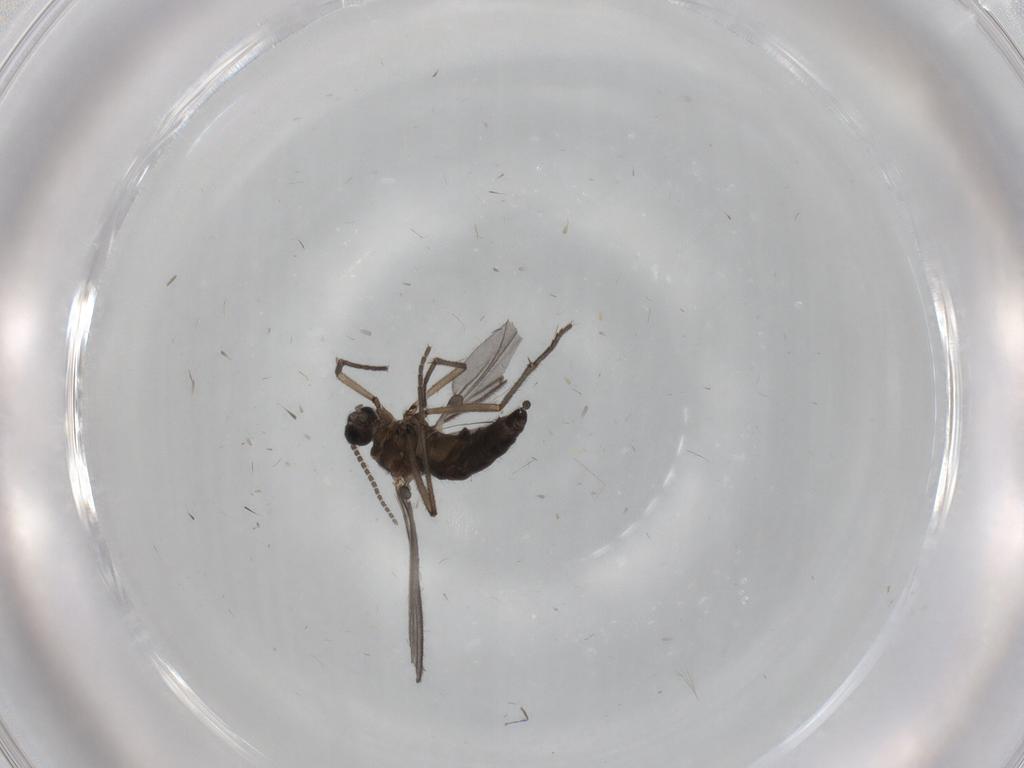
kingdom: Animalia
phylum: Arthropoda
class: Insecta
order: Diptera
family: Sciaridae
